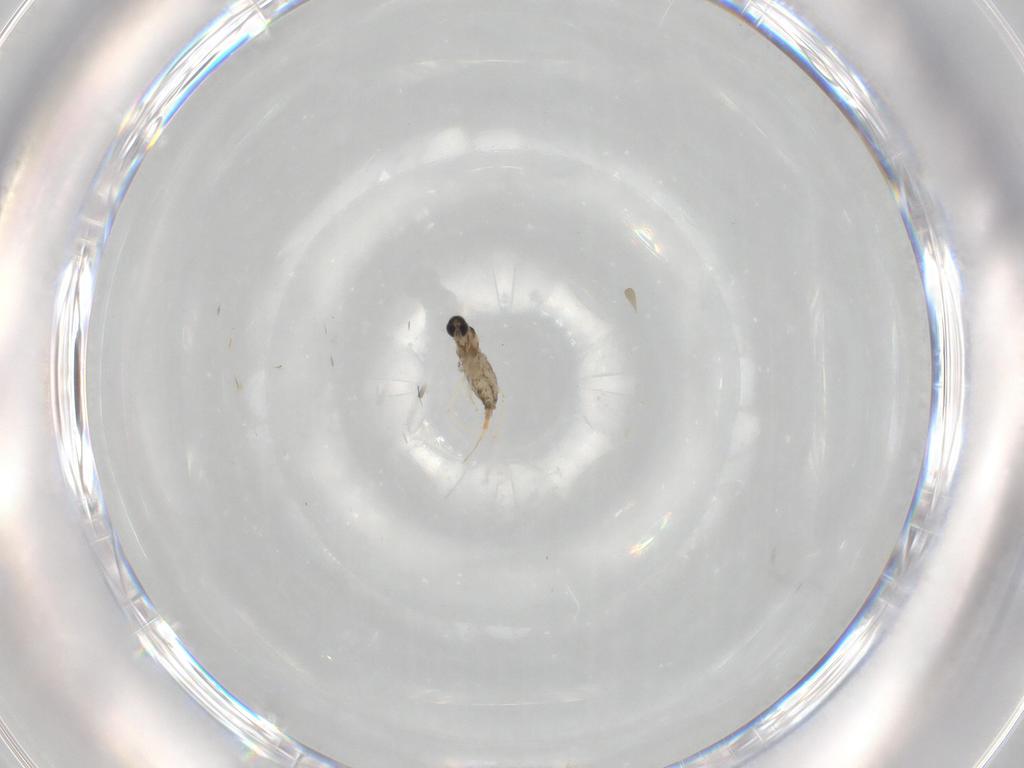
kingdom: Animalia
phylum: Arthropoda
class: Insecta
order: Diptera
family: Cecidomyiidae
